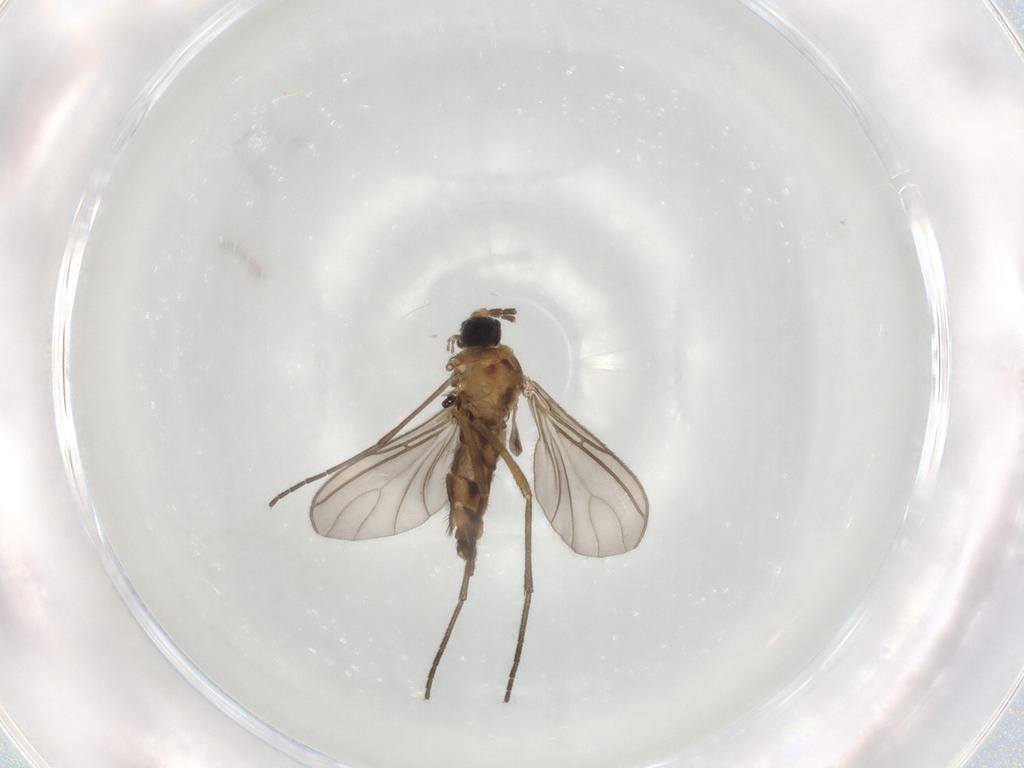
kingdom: Animalia
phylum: Arthropoda
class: Insecta
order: Diptera
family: Sciaridae
